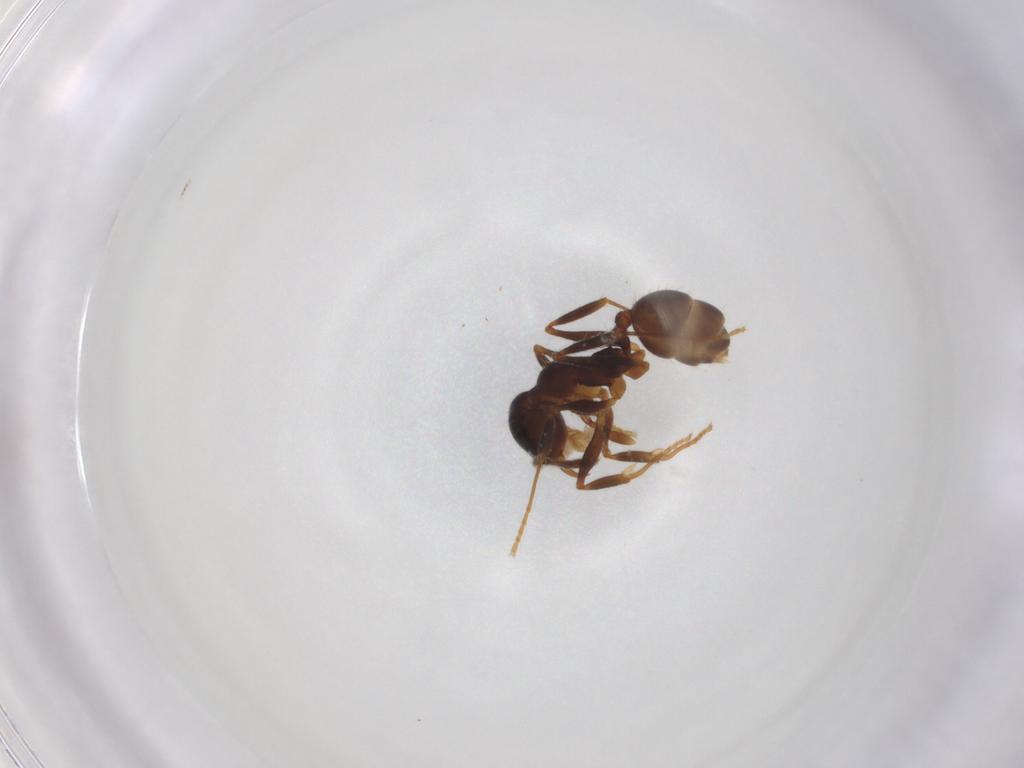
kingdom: Animalia
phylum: Arthropoda
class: Insecta
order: Hymenoptera
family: Formicidae
